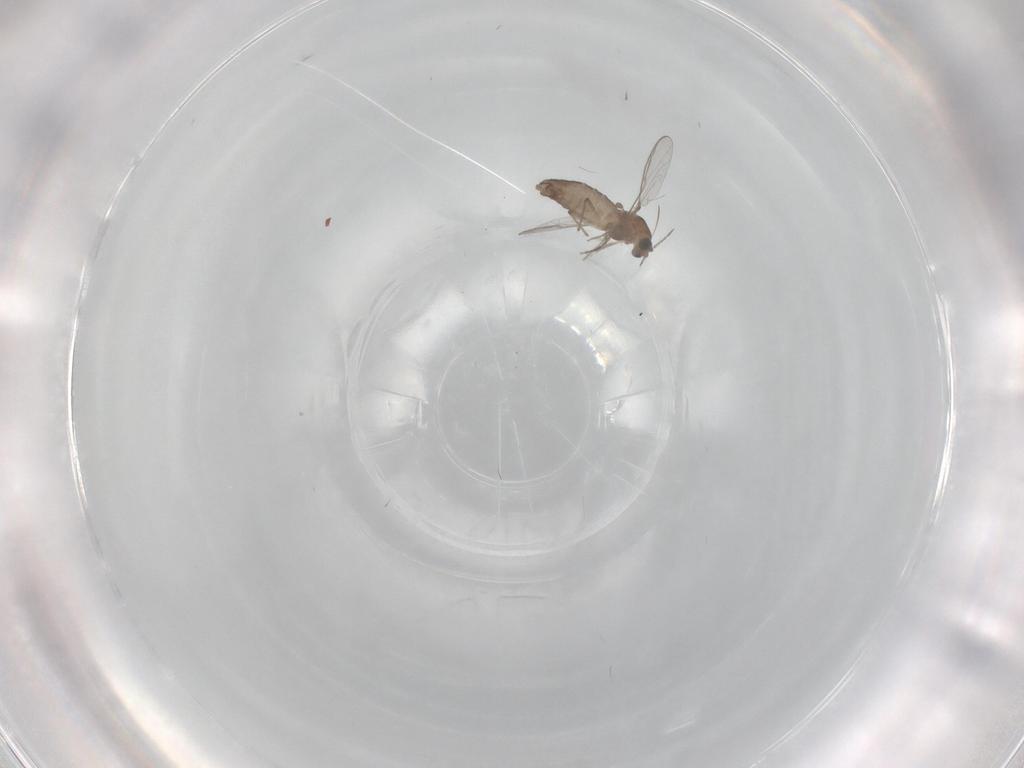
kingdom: Animalia
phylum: Arthropoda
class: Insecta
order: Diptera
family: Chironomidae
